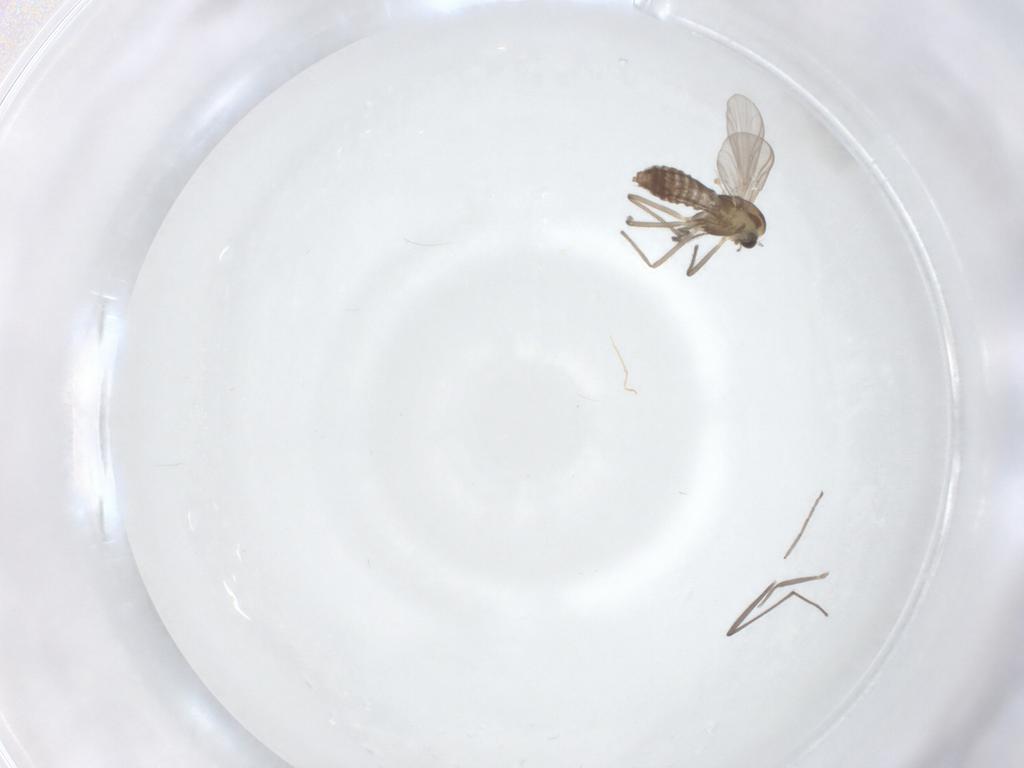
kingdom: Animalia
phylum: Arthropoda
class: Insecta
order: Diptera
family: Chironomidae
